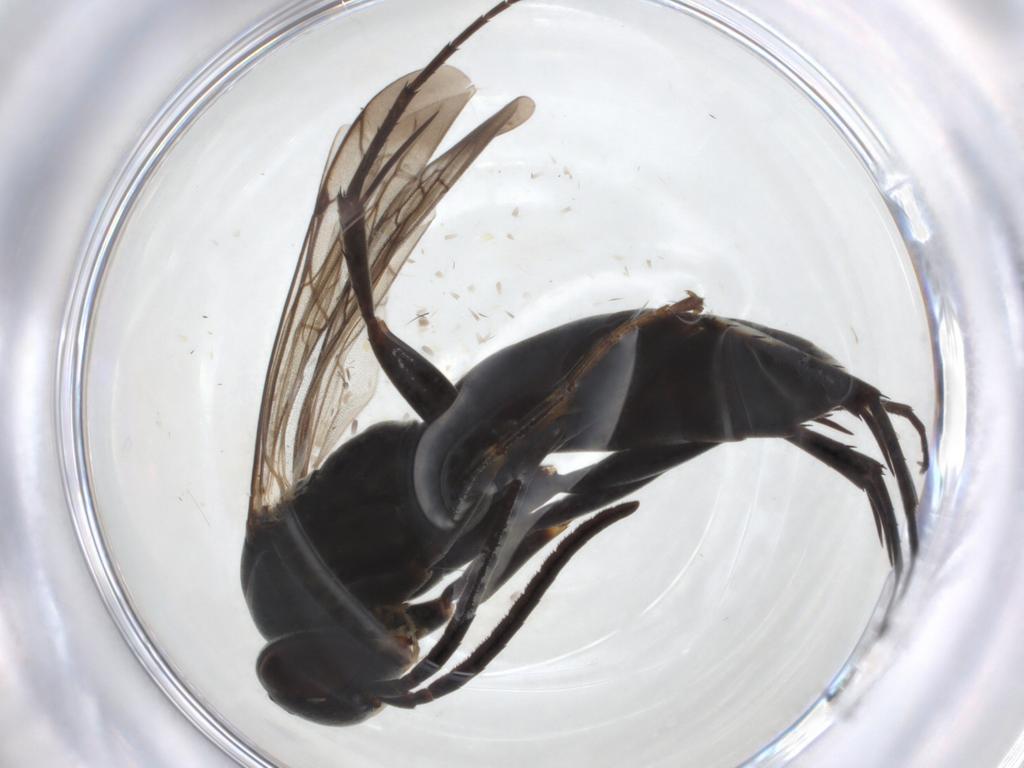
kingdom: Animalia
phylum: Arthropoda
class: Insecta
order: Hymenoptera
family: Pompilidae
